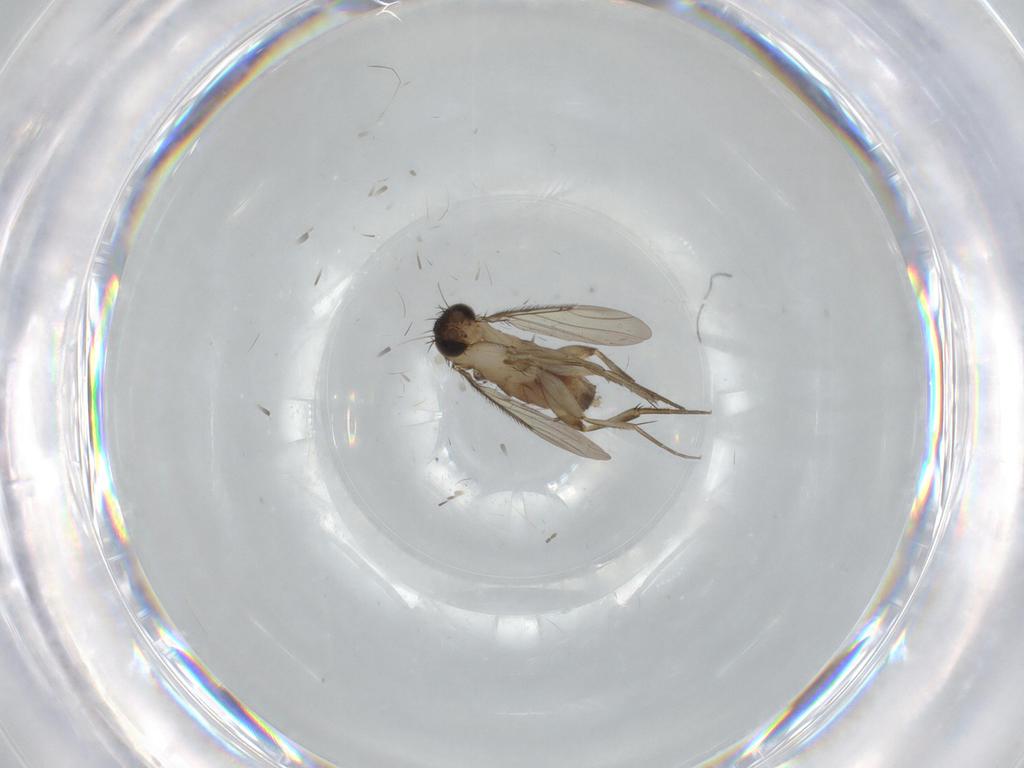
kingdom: Animalia
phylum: Arthropoda
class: Insecta
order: Diptera
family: Phoridae
